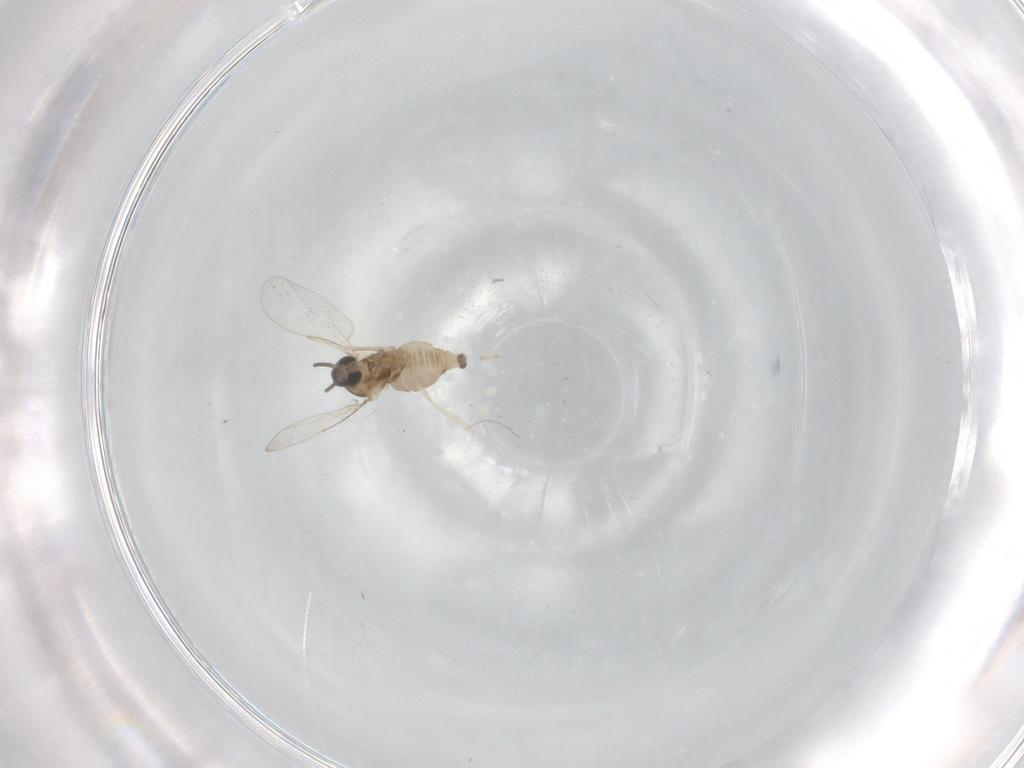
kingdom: Animalia
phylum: Arthropoda
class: Insecta
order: Diptera
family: Cecidomyiidae
